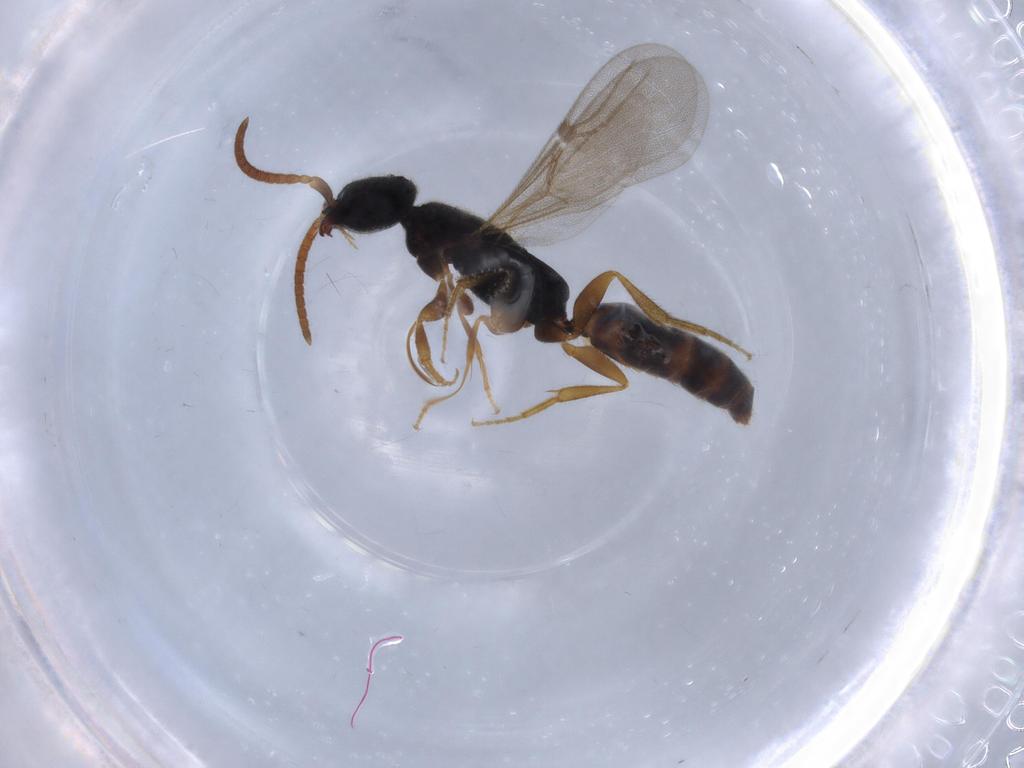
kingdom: Animalia
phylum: Arthropoda
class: Insecta
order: Hymenoptera
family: Bethylidae
